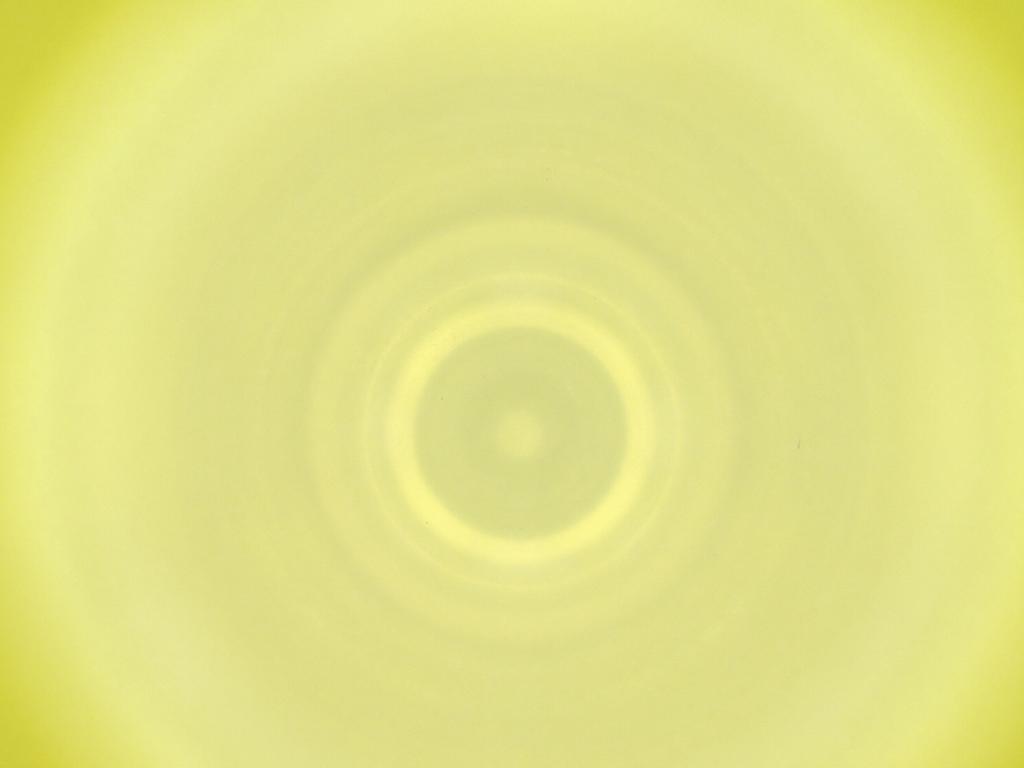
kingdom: Animalia
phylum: Arthropoda
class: Insecta
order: Diptera
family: Cecidomyiidae
